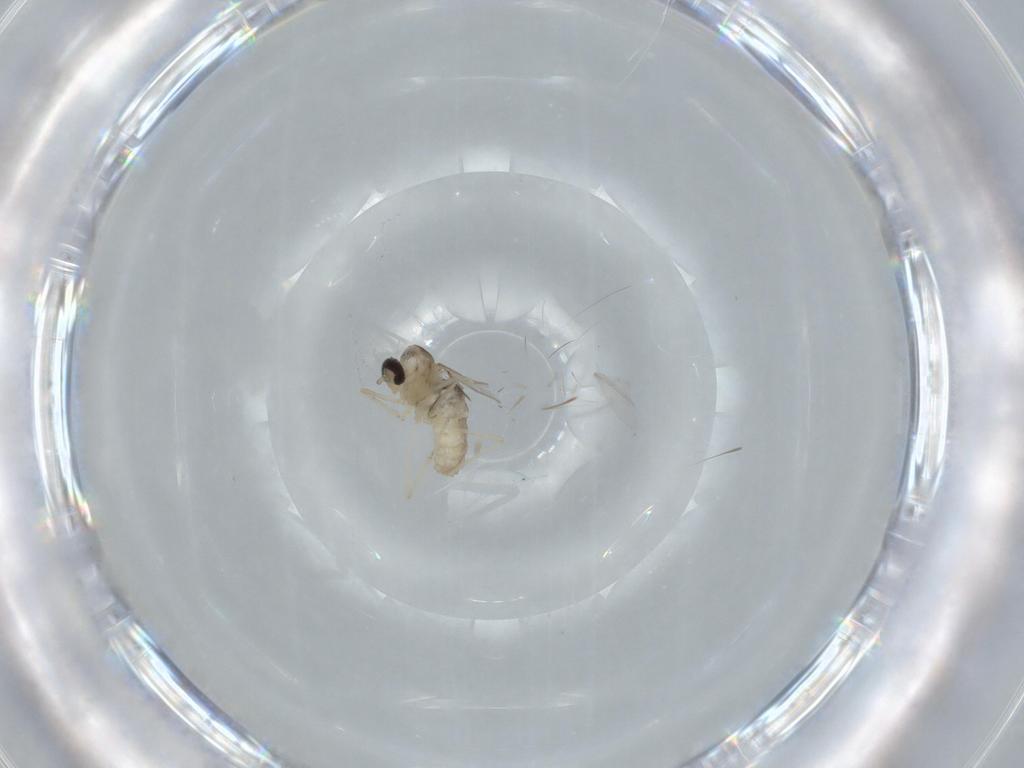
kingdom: Animalia
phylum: Arthropoda
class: Insecta
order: Diptera
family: Cecidomyiidae
